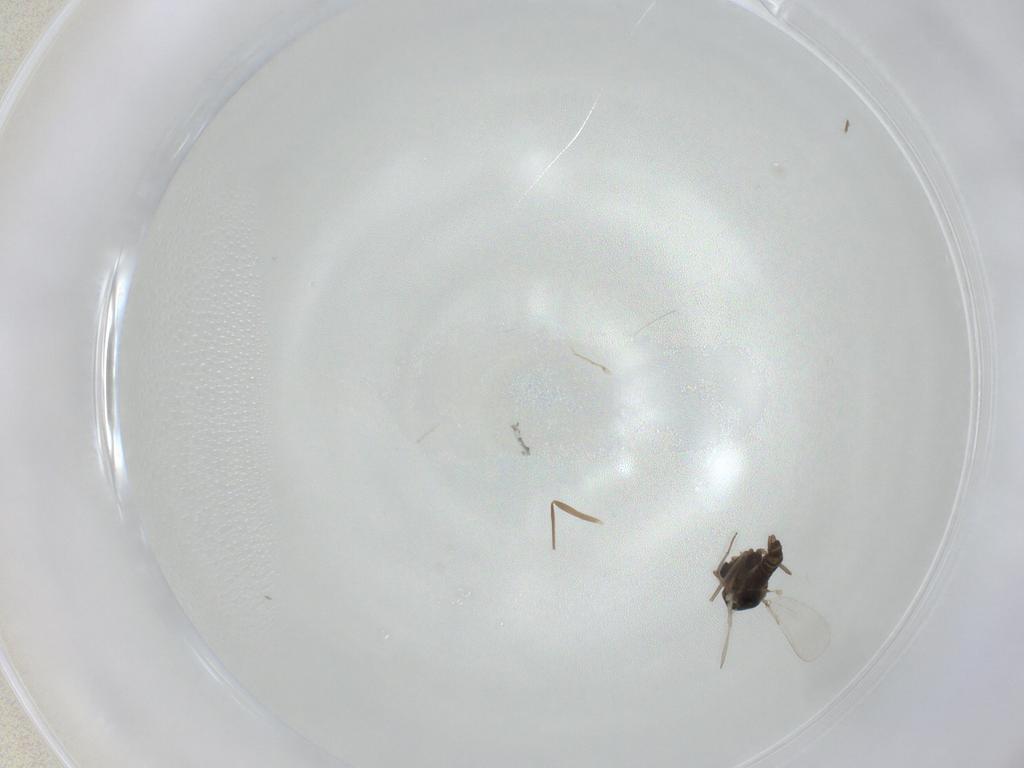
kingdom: Animalia
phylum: Arthropoda
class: Insecta
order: Diptera
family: Chironomidae
